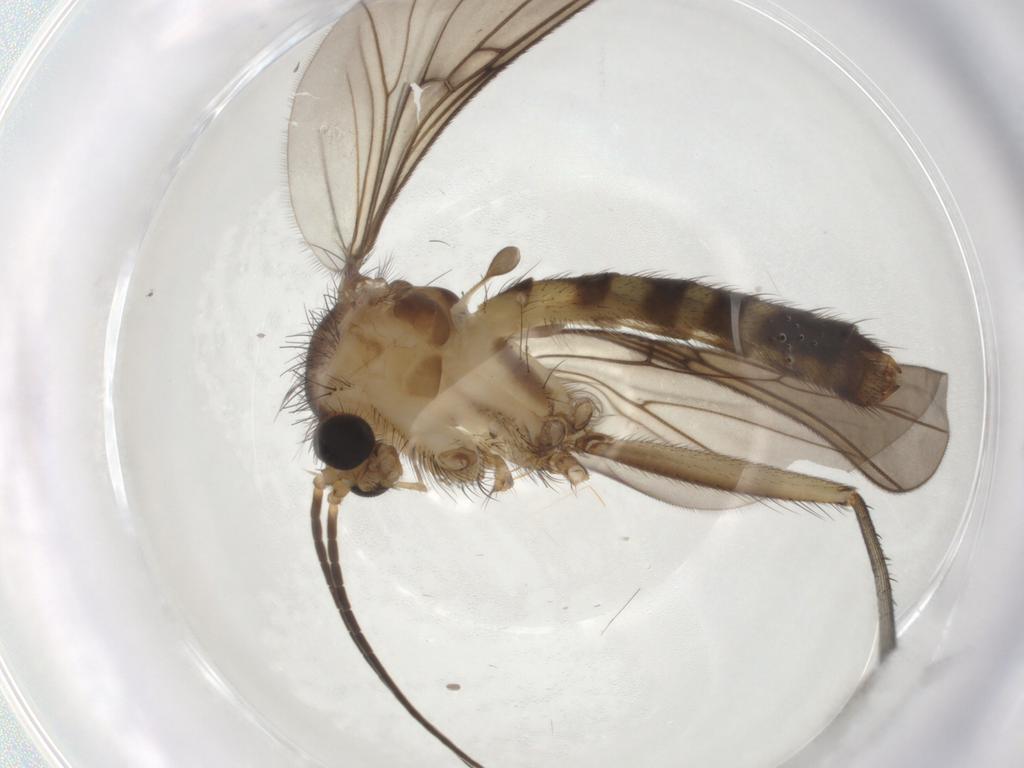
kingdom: Animalia
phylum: Arthropoda
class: Insecta
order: Diptera
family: Mycetophilidae
